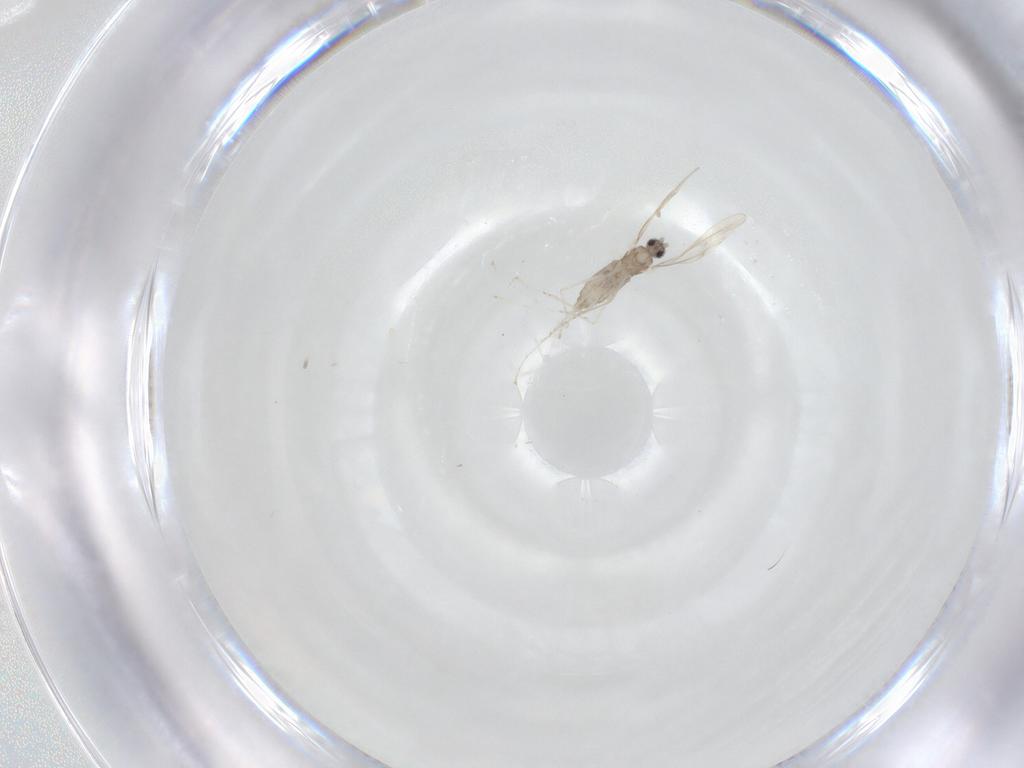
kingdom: Animalia
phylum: Arthropoda
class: Insecta
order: Diptera
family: Cecidomyiidae
